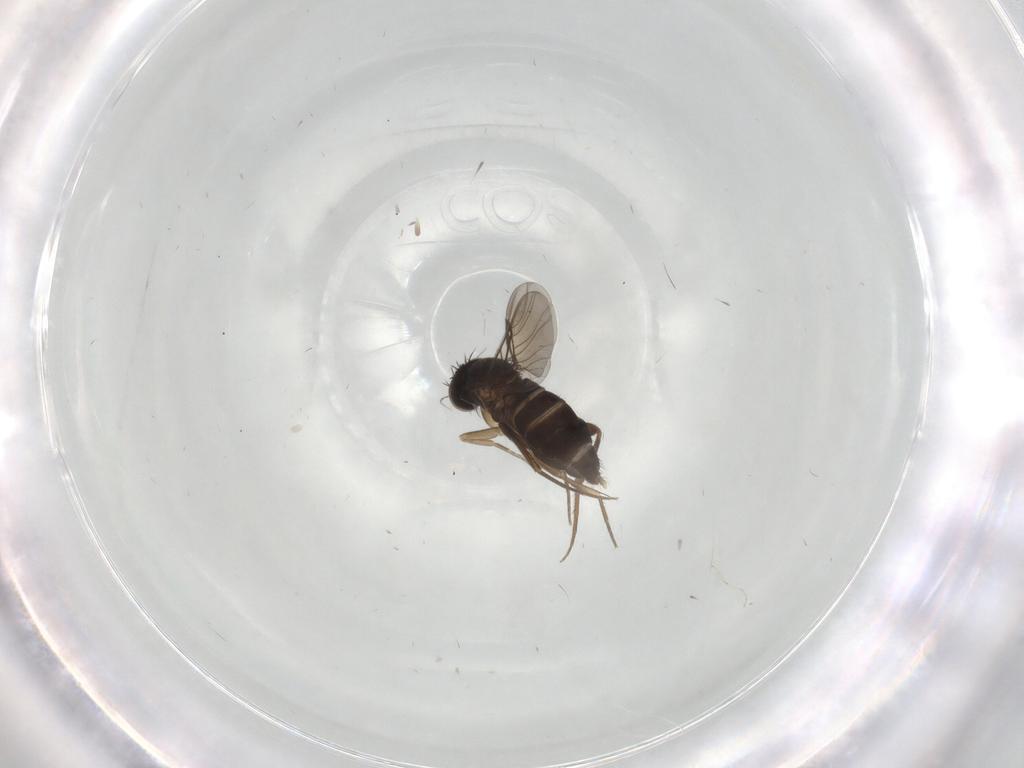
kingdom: Animalia
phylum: Arthropoda
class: Insecta
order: Diptera
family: Phoridae
